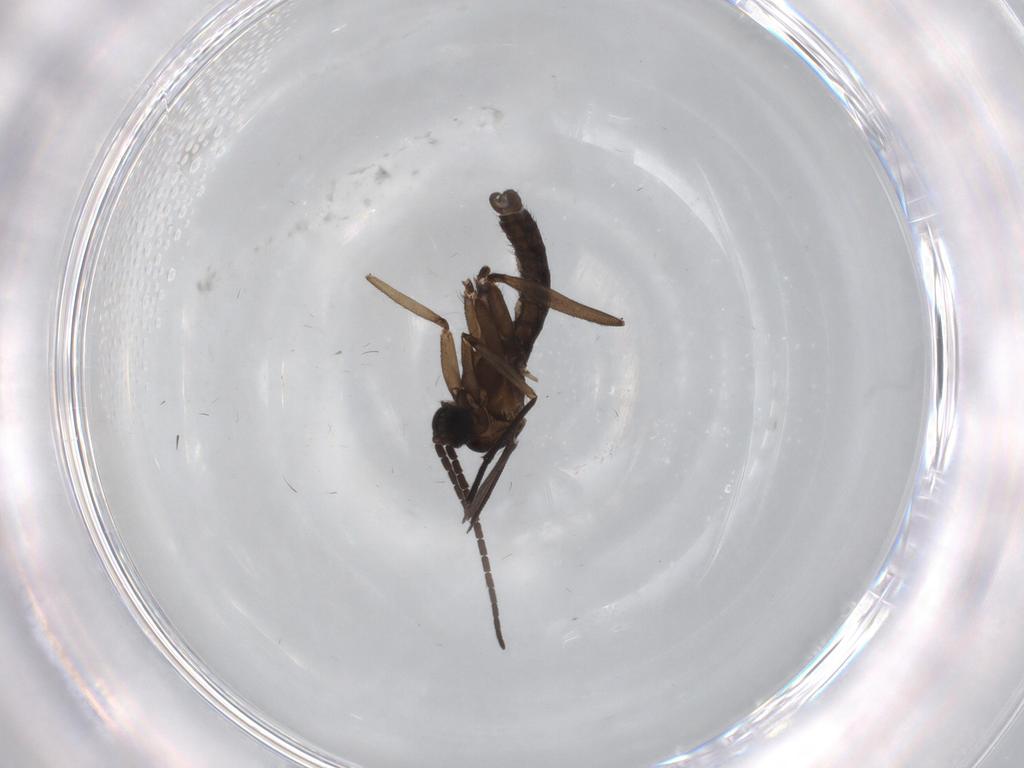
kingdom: Animalia
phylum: Arthropoda
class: Insecta
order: Diptera
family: Sciaridae
